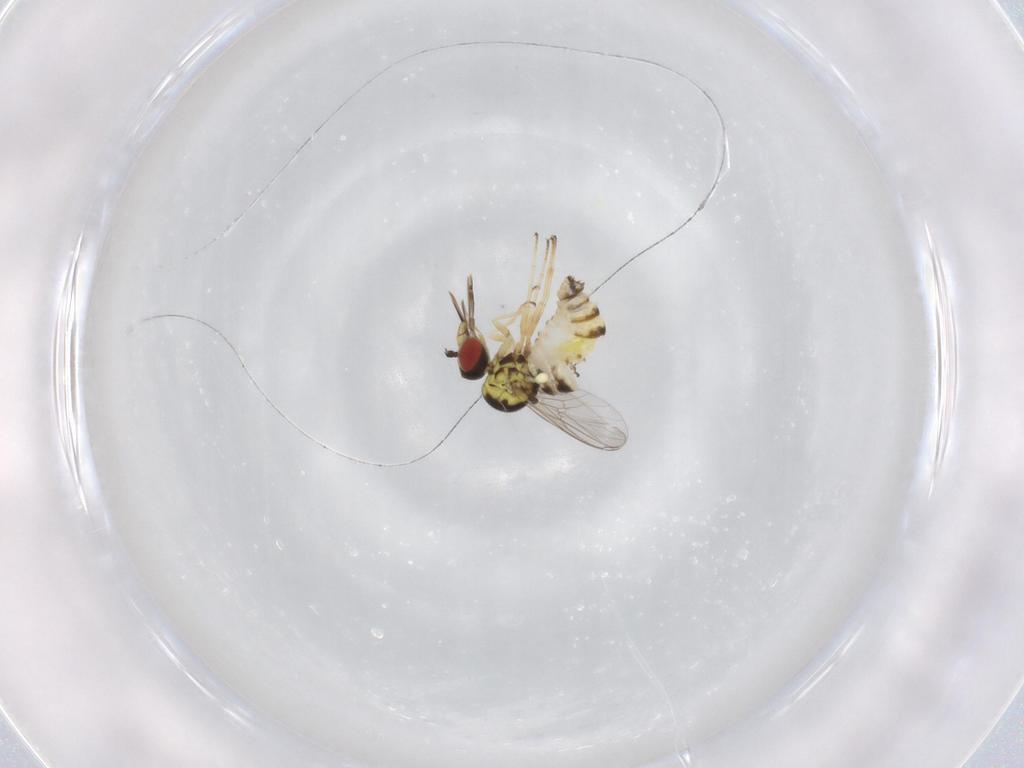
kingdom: Animalia
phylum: Arthropoda
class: Insecta
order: Diptera
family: Bombyliidae
